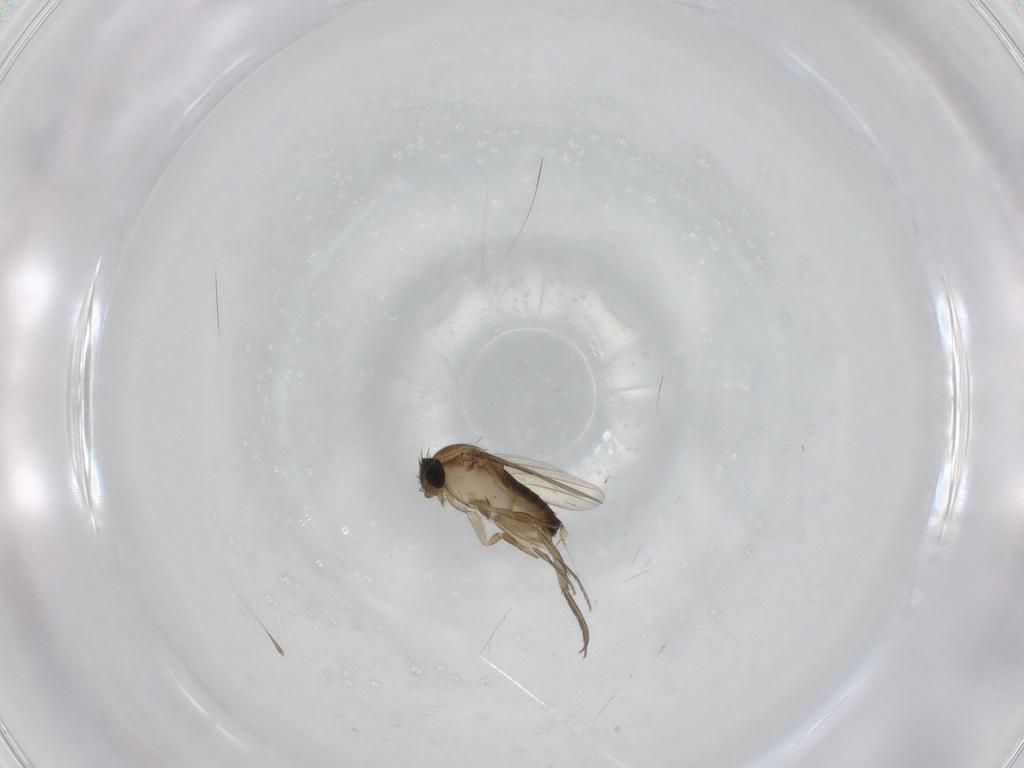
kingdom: Animalia
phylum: Arthropoda
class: Insecta
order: Diptera
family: Phoridae
